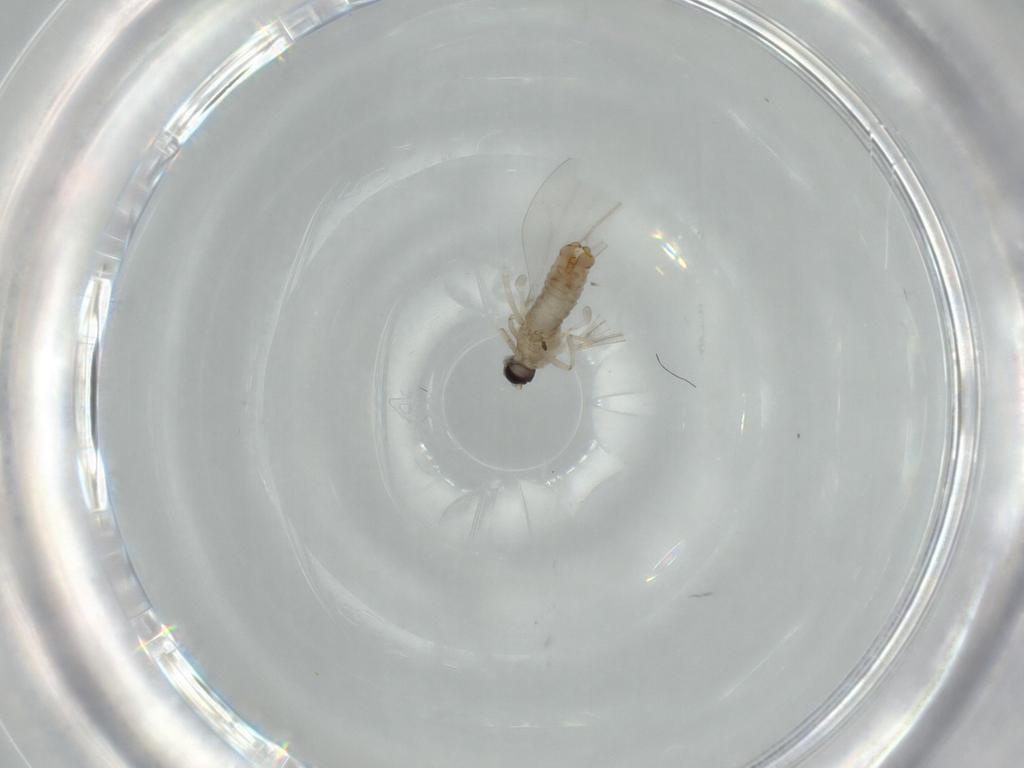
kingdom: Animalia
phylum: Arthropoda
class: Insecta
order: Diptera
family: Cecidomyiidae
